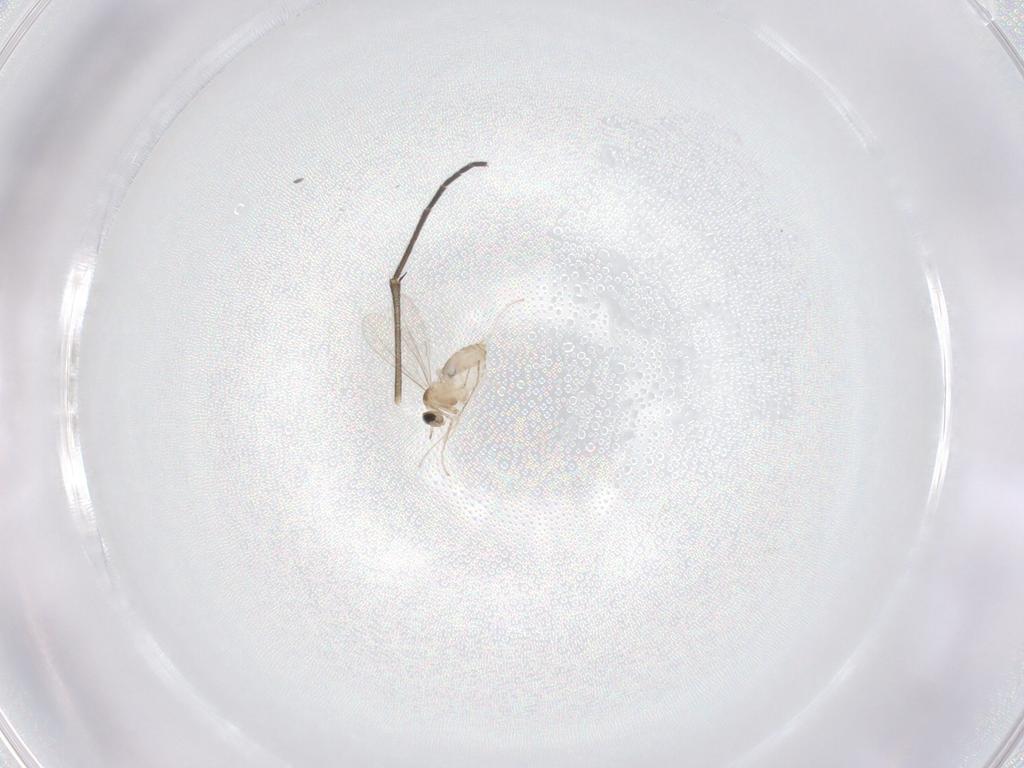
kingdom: Animalia
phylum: Arthropoda
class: Insecta
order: Diptera
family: Cecidomyiidae
